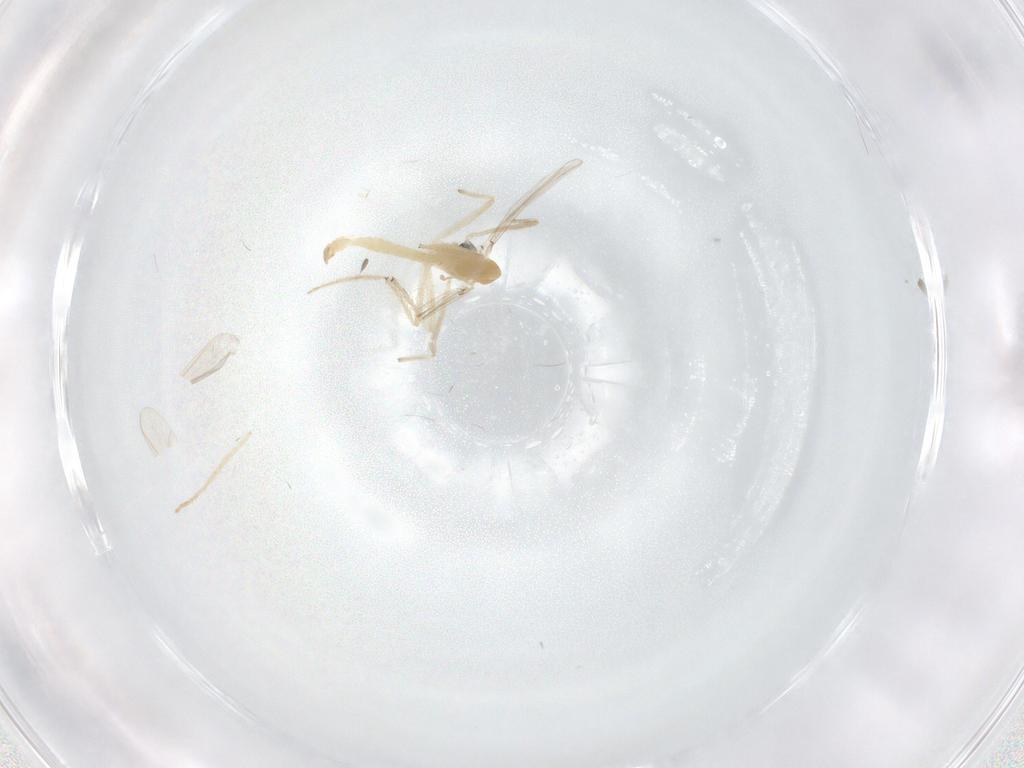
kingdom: Animalia
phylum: Arthropoda
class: Insecta
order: Diptera
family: Chironomidae
